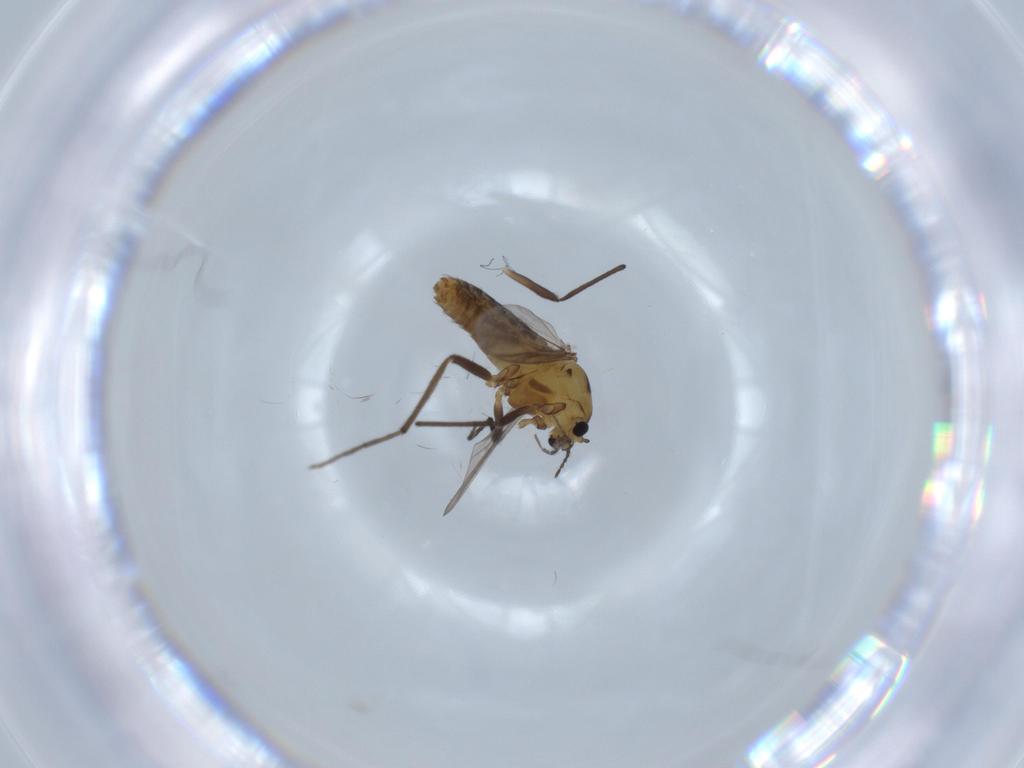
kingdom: Animalia
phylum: Arthropoda
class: Insecta
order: Diptera
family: Chironomidae
